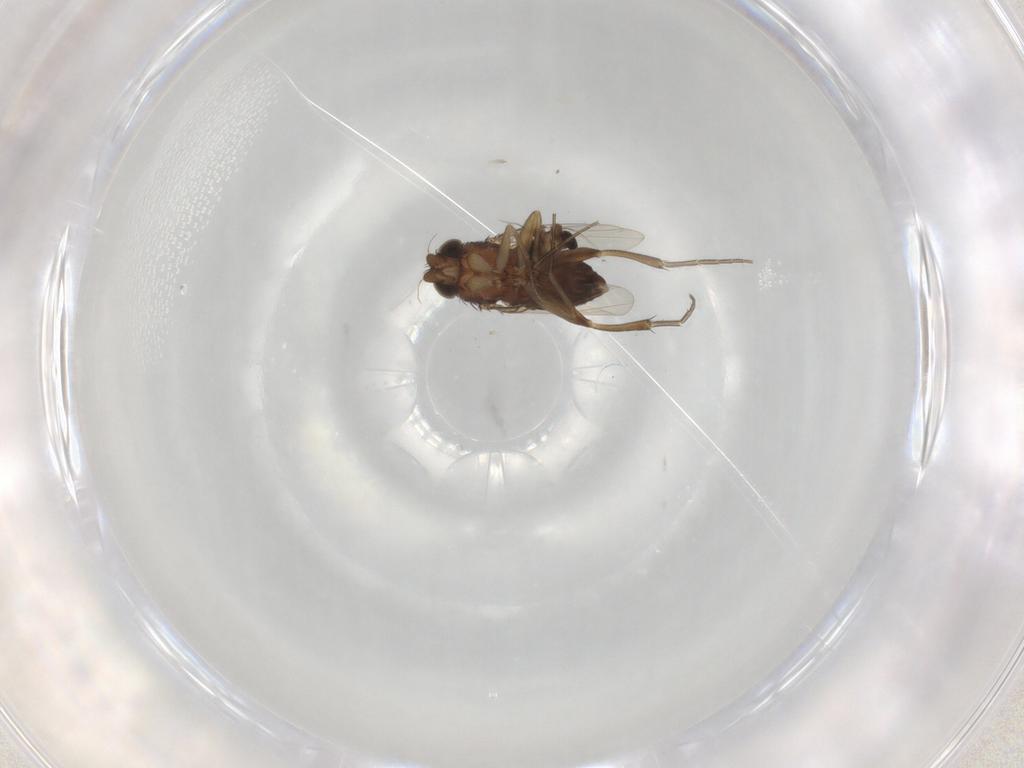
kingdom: Animalia
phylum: Arthropoda
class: Insecta
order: Diptera
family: Phoridae
